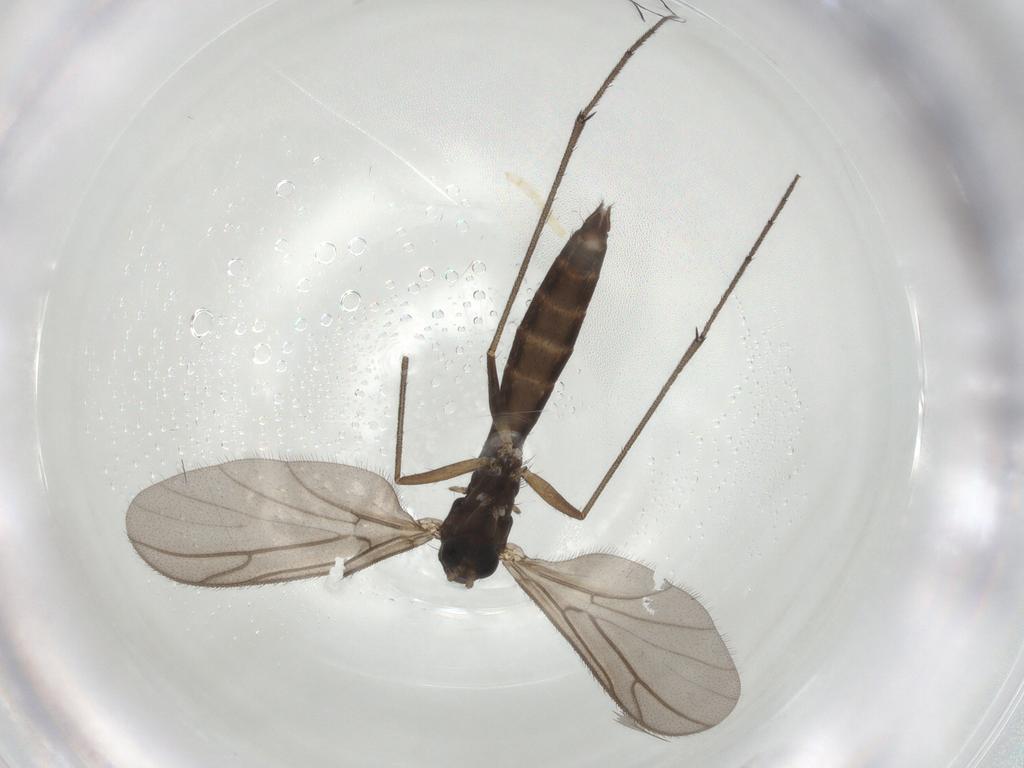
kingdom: Animalia
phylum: Arthropoda
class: Insecta
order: Diptera
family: Ditomyiidae
